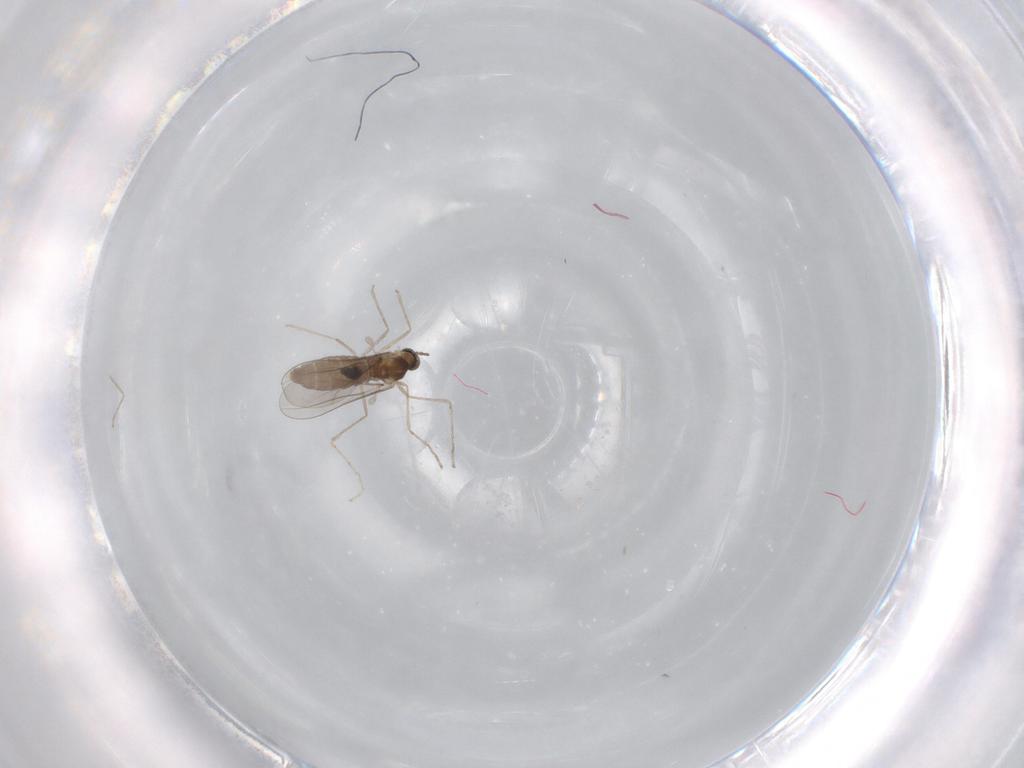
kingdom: Animalia
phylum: Arthropoda
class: Insecta
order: Diptera
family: Chironomidae
